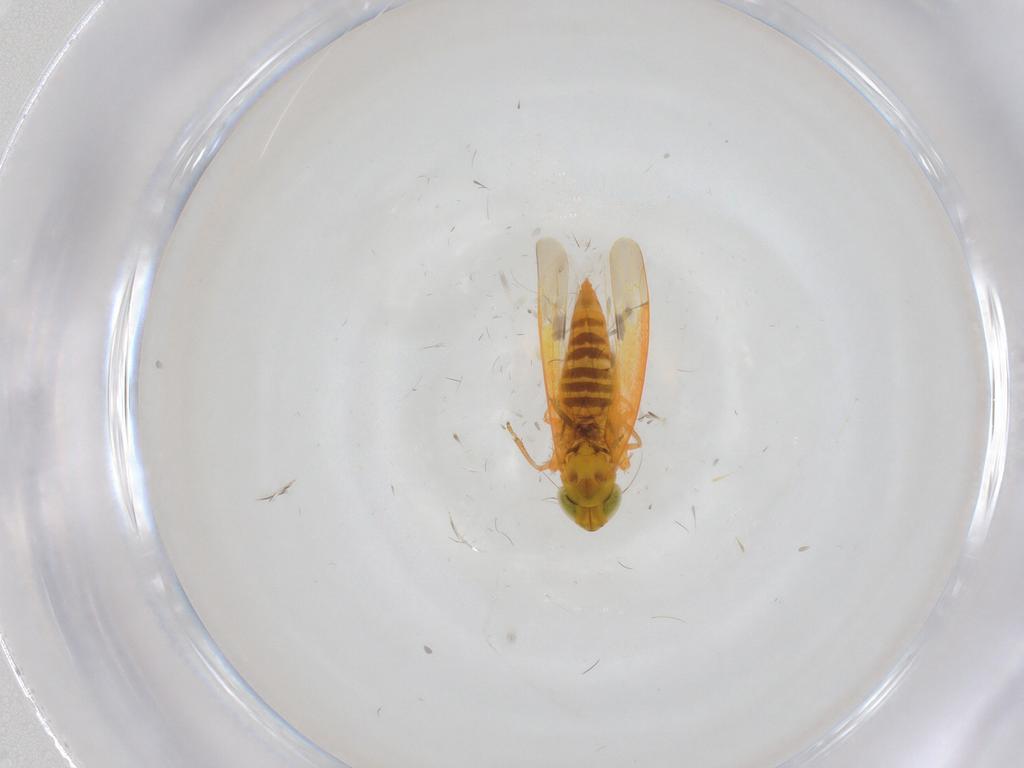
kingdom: Animalia
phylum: Arthropoda
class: Insecta
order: Hemiptera
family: Cicadellidae
